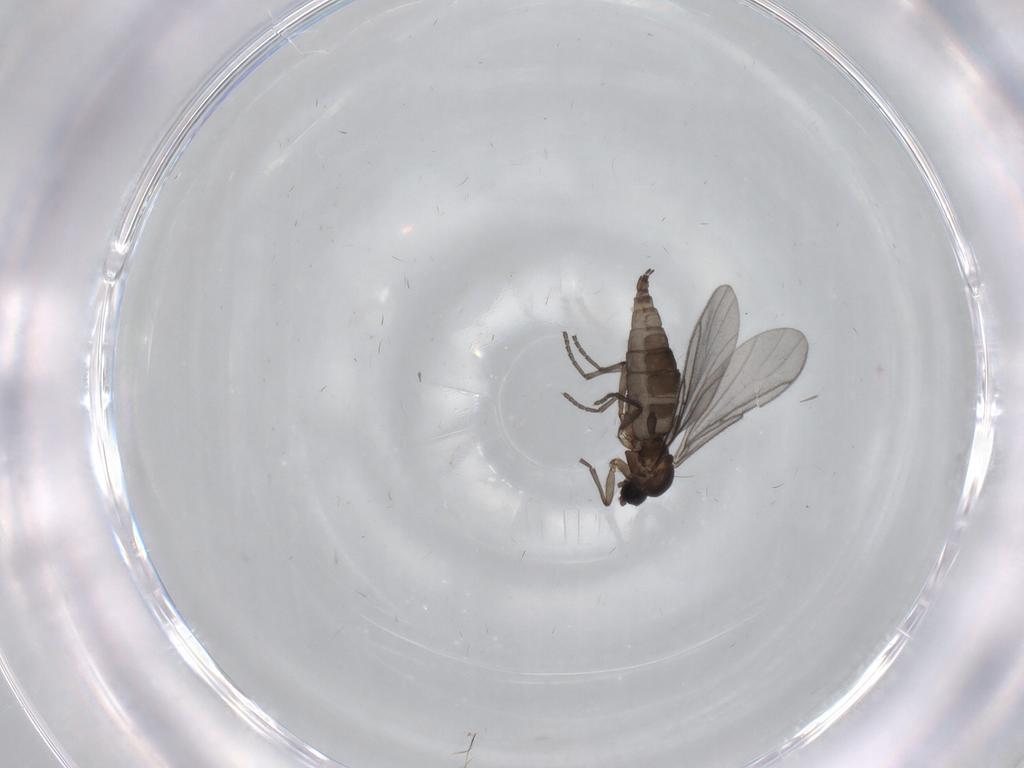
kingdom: Animalia
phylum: Arthropoda
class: Insecta
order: Diptera
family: Sciaridae
